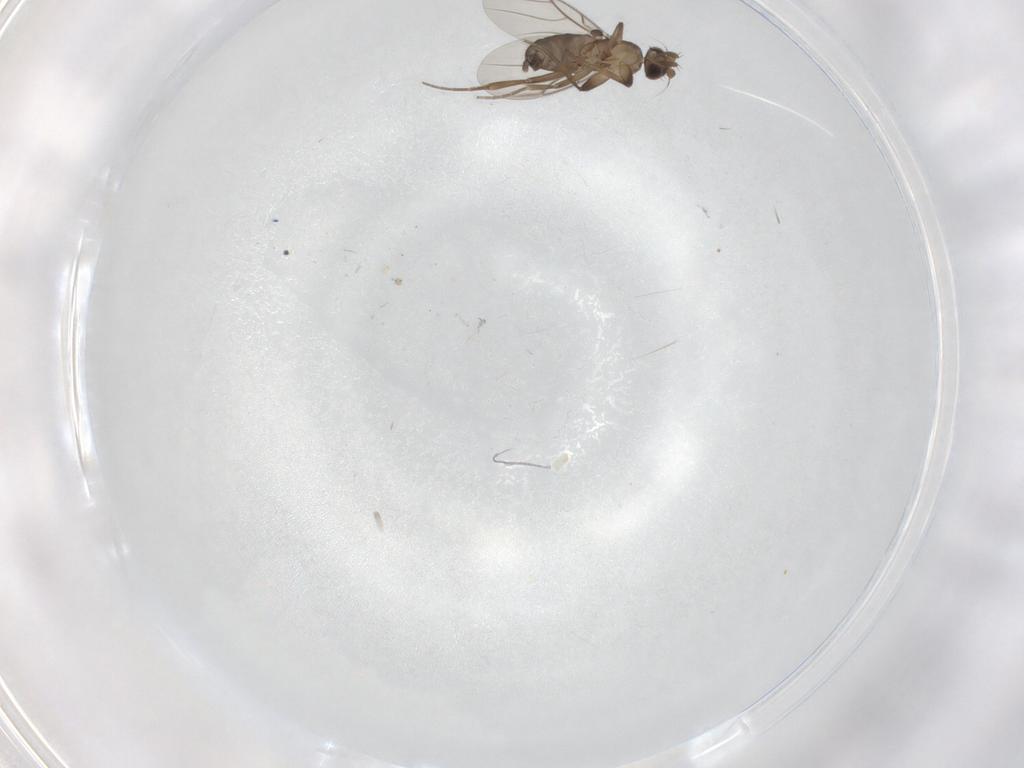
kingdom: Animalia
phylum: Arthropoda
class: Insecta
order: Diptera
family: Phoridae
